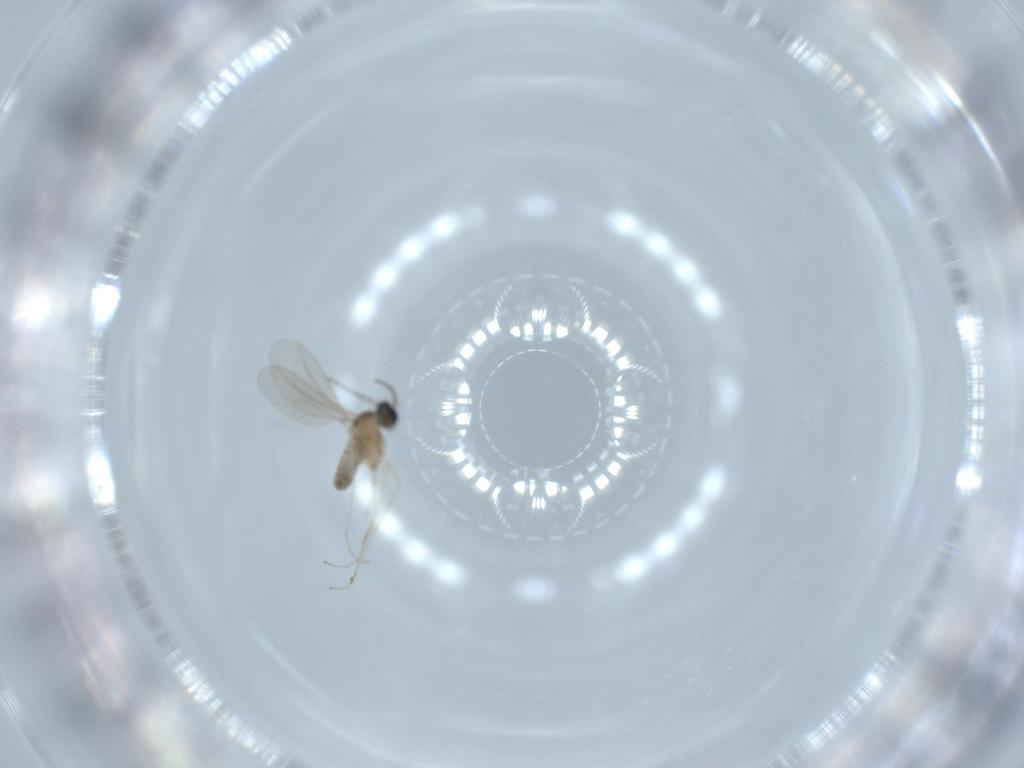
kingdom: Animalia
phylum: Arthropoda
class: Insecta
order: Diptera
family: Cecidomyiidae
